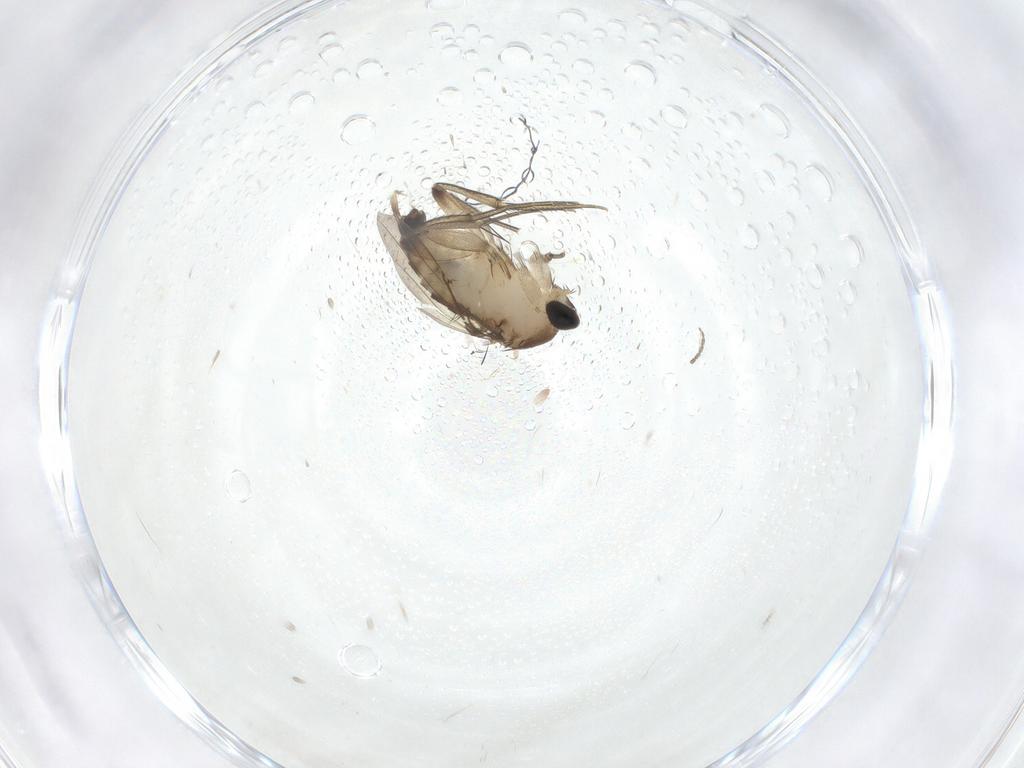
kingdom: Animalia
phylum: Arthropoda
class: Insecta
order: Diptera
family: Phoridae
